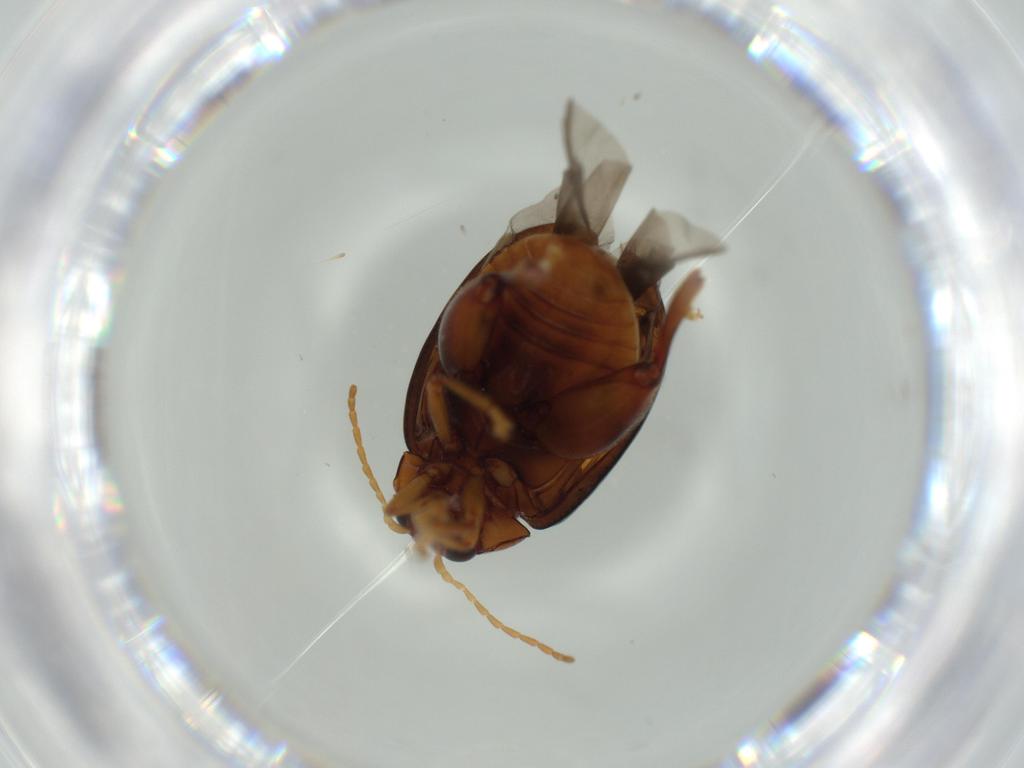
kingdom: Animalia
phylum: Arthropoda
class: Insecta
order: Coleoptera
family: Chrysomelidae
